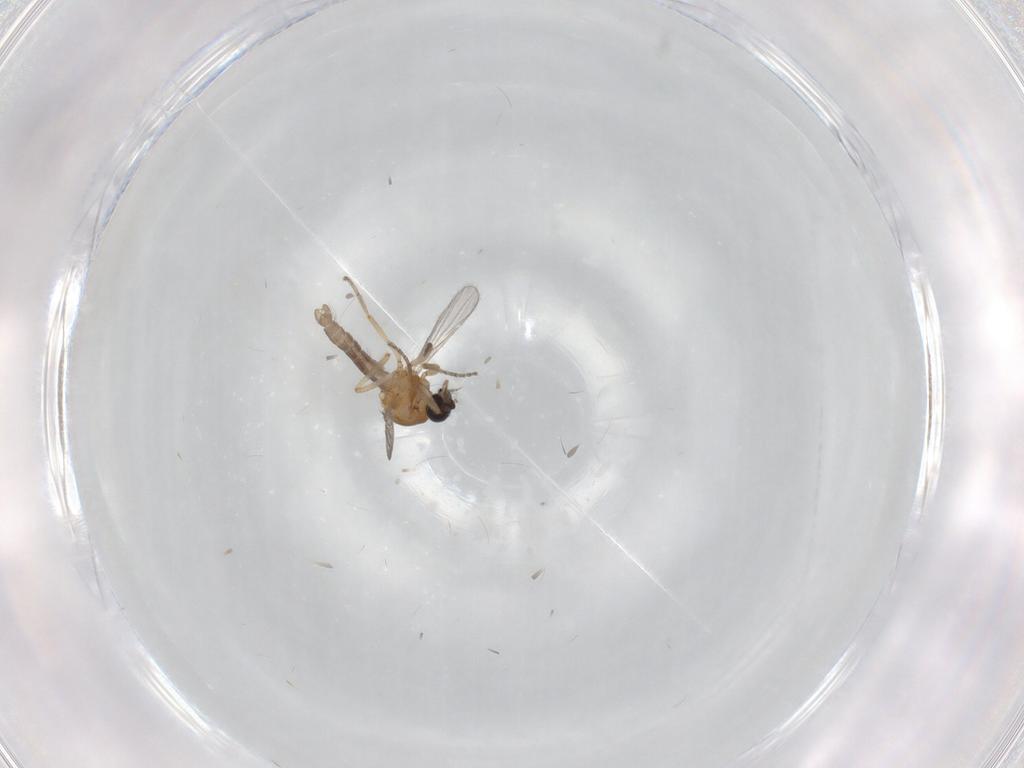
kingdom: Animalia
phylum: Arthropoda
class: Insecta
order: Diptera
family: Ceratopogonidae
